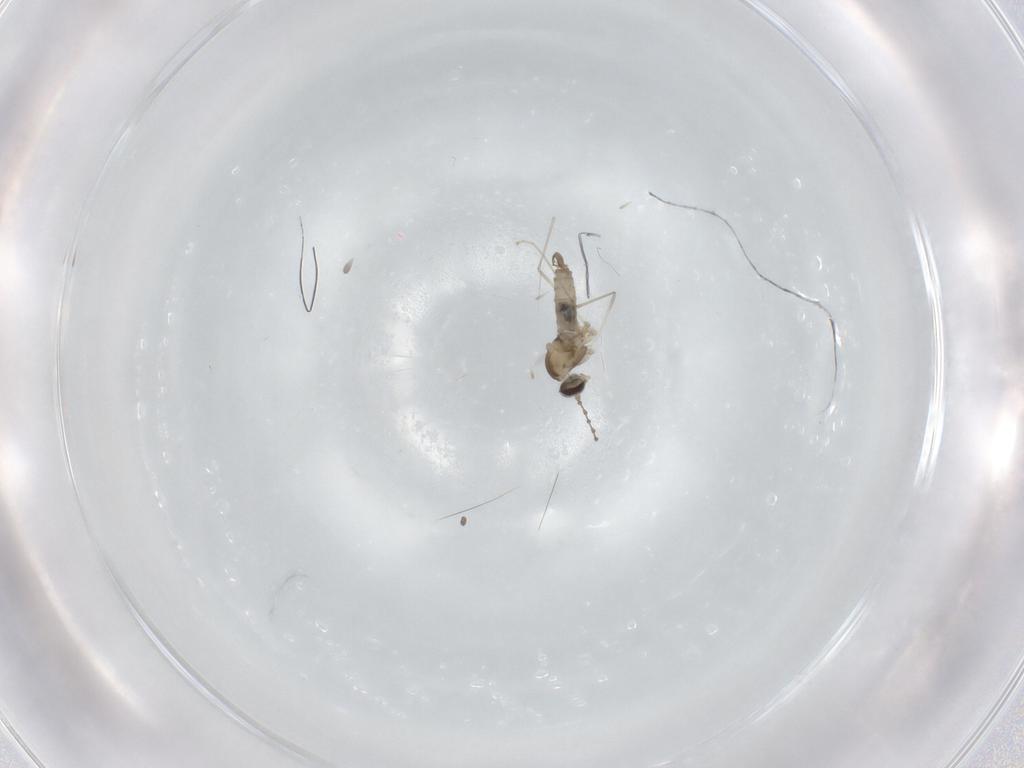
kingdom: Animalia
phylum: Arthropoda
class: Insecta
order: Diptera
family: Cecidomyiidae
